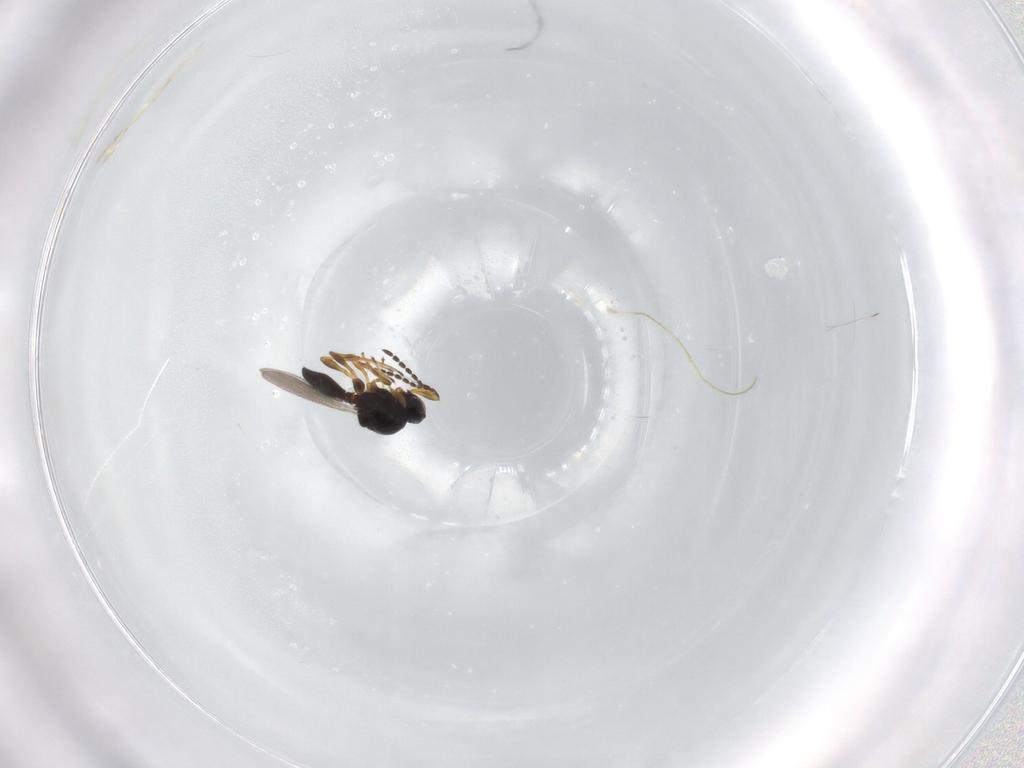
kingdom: Animalia
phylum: Arthropoda
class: Insecta
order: Hymenoptera
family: Platygastridae
